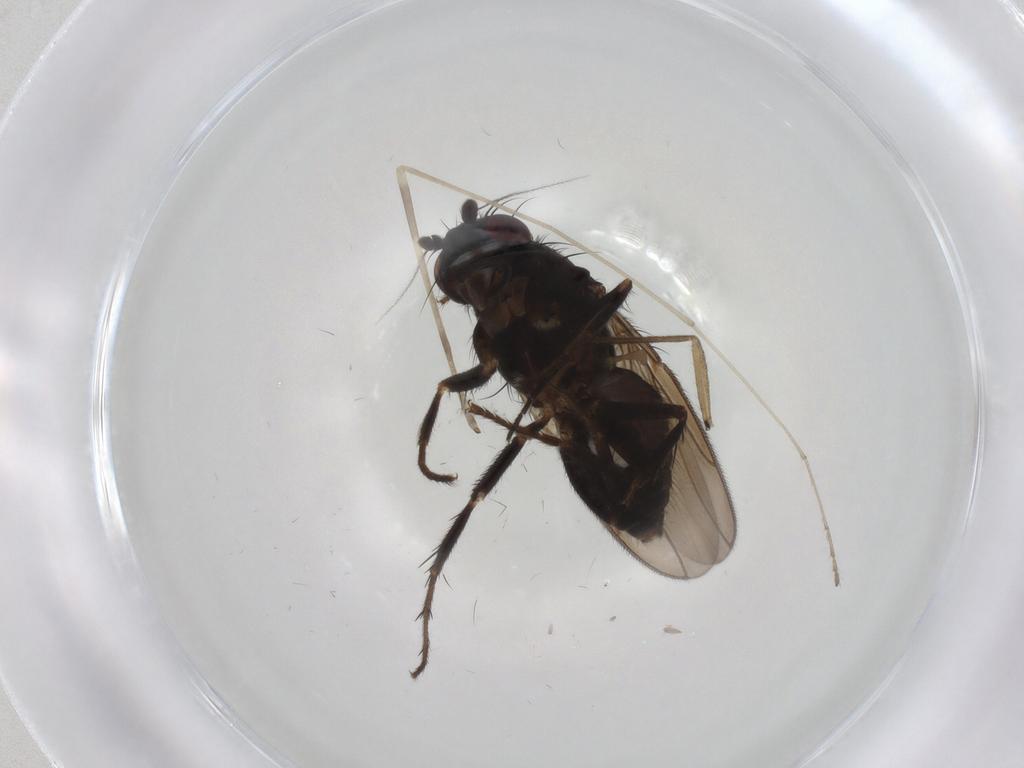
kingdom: Animalia
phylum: Arthropoda
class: Insecta
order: Diptera
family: Sphaeroceridae
